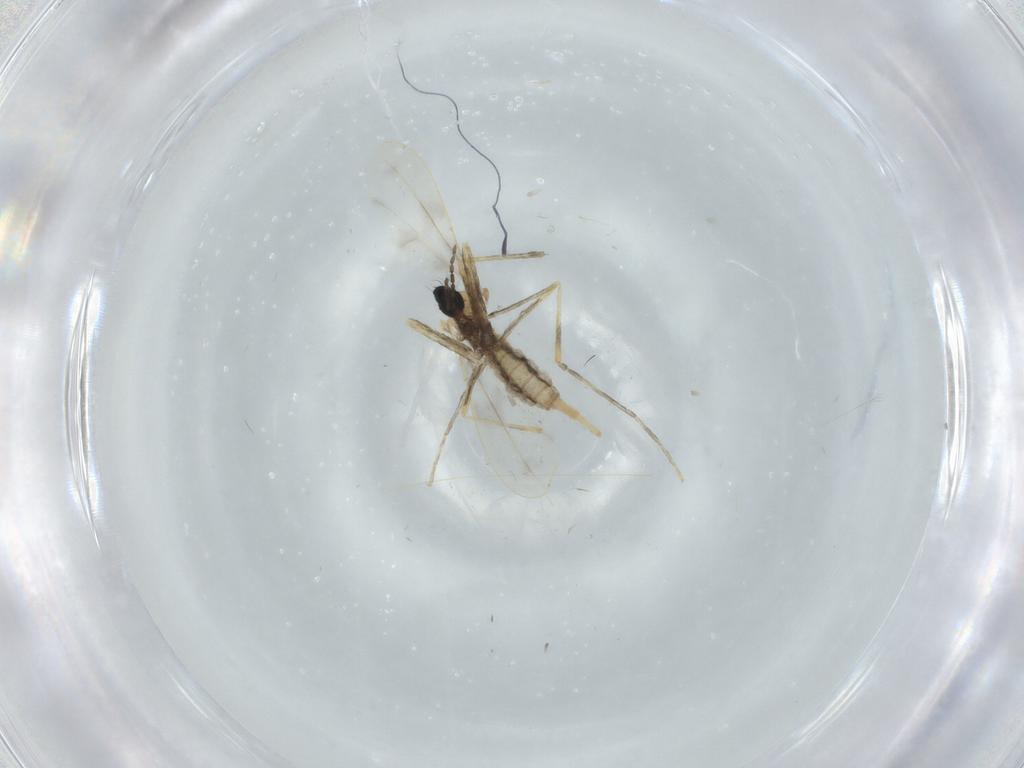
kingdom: Animalia
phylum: Arthropoda
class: Insecta
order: Diptera
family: Cecidomyiidae
